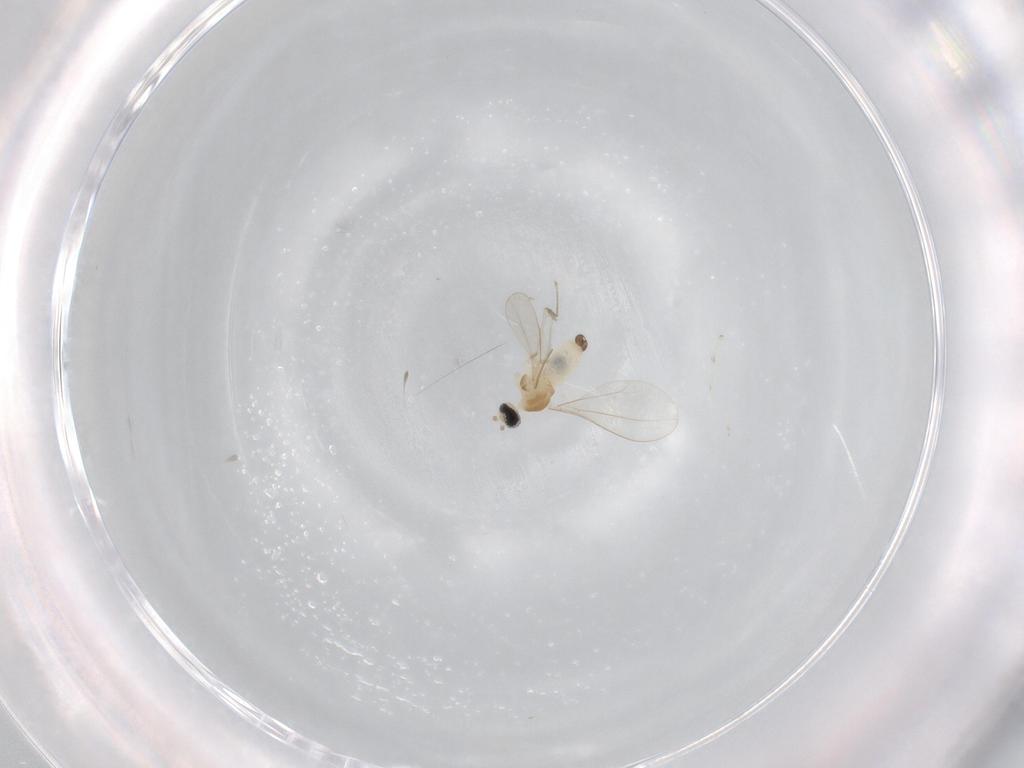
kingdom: Animalia
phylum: Arthropoda
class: Insecta
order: Diptera
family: Cecidomyiidae
